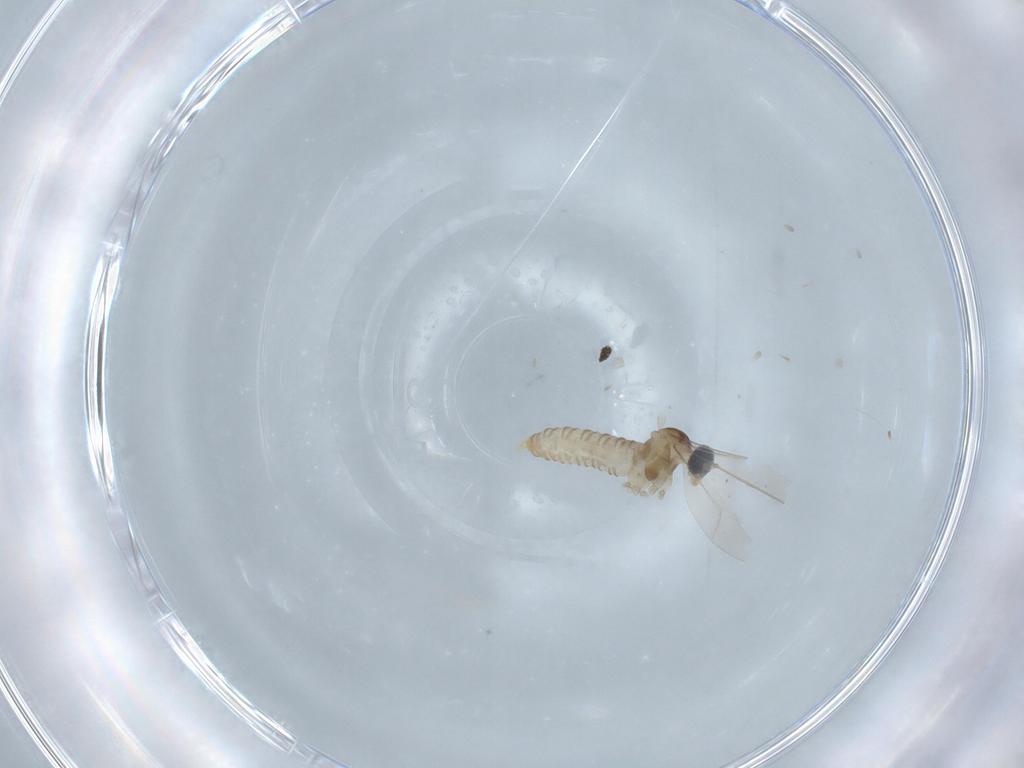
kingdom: Animalia
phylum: Arthropoda
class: Insecta
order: Diptera
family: Cecidomyiidae
